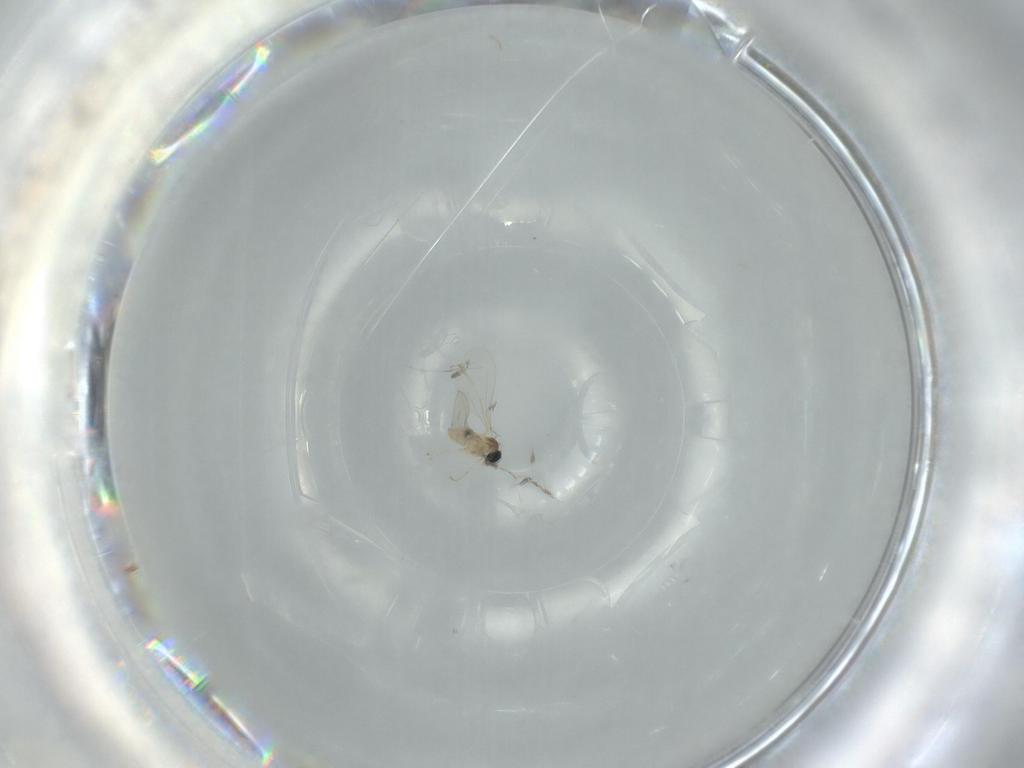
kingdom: Animalia
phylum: Arthropoda
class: Insecta
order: Diptera
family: Cecidomyiidae
